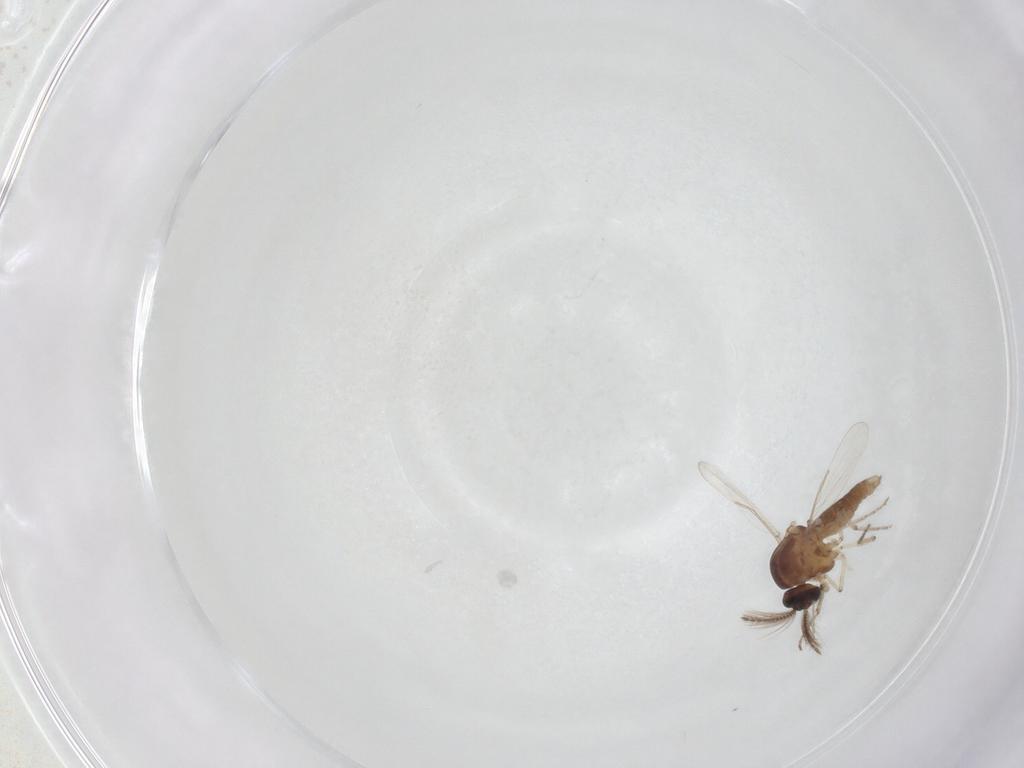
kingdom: Animalia
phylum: Arthropoda
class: Insecta
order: Diptera
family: Ceratopogonidae
